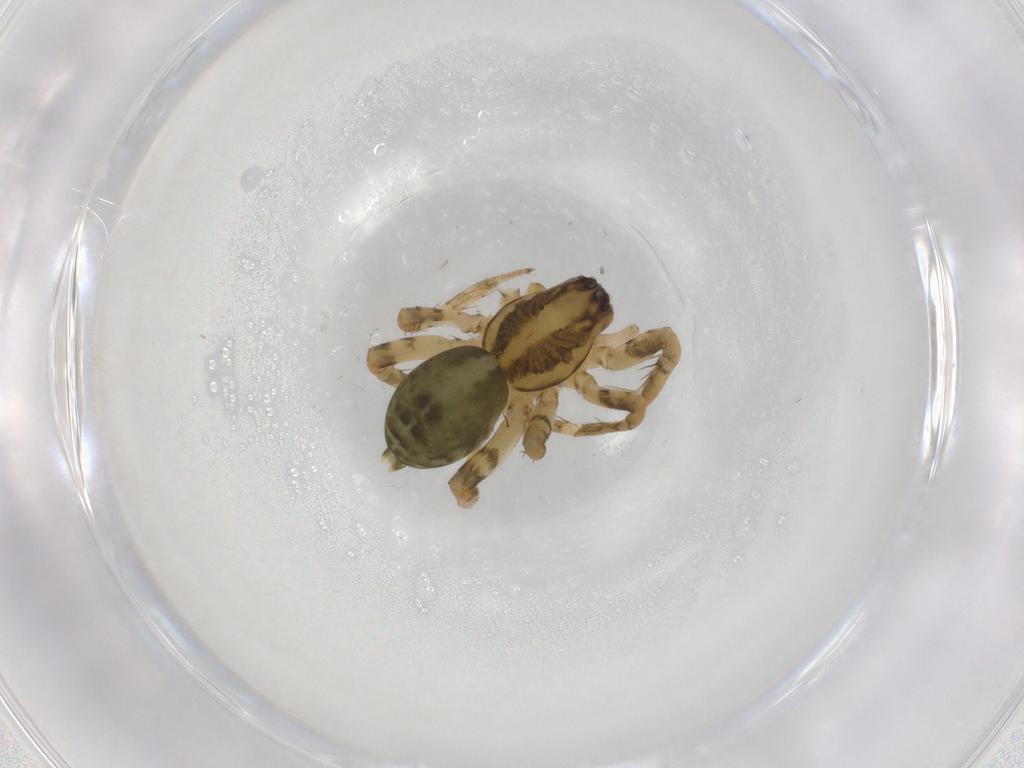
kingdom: Animalia
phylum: Arthropoda
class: Arachnida
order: Araneae
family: Anyphaenidae
